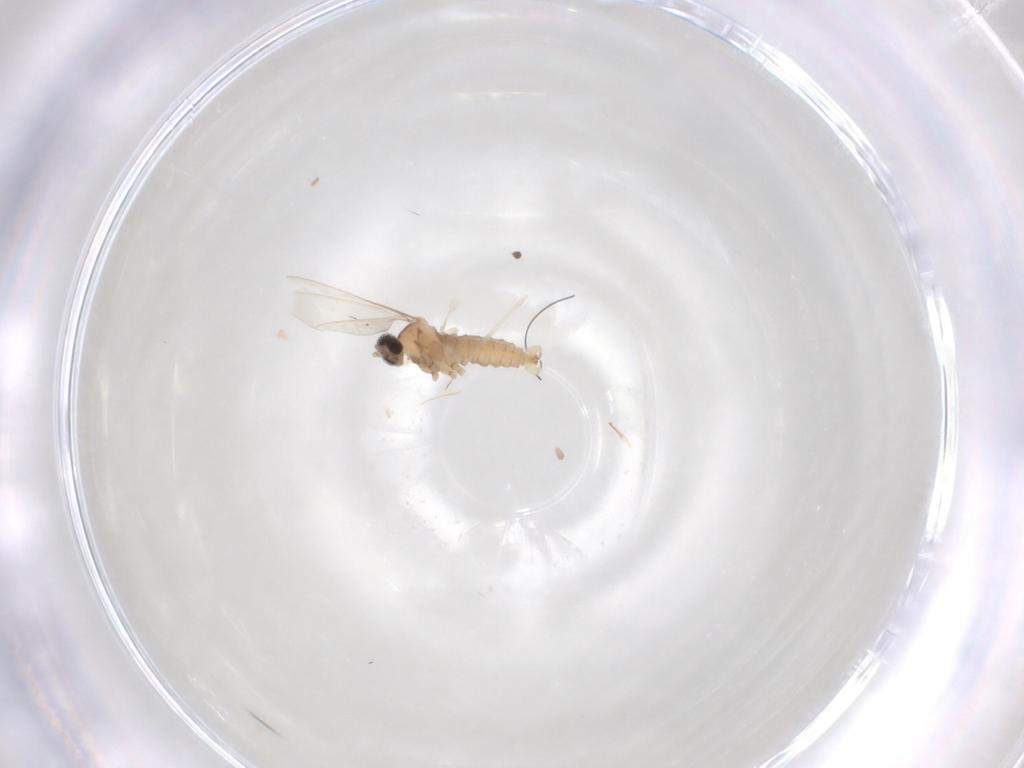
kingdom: Animalia
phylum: Arthropoda
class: Insecta
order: Diptera
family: Cecidomyiidae
